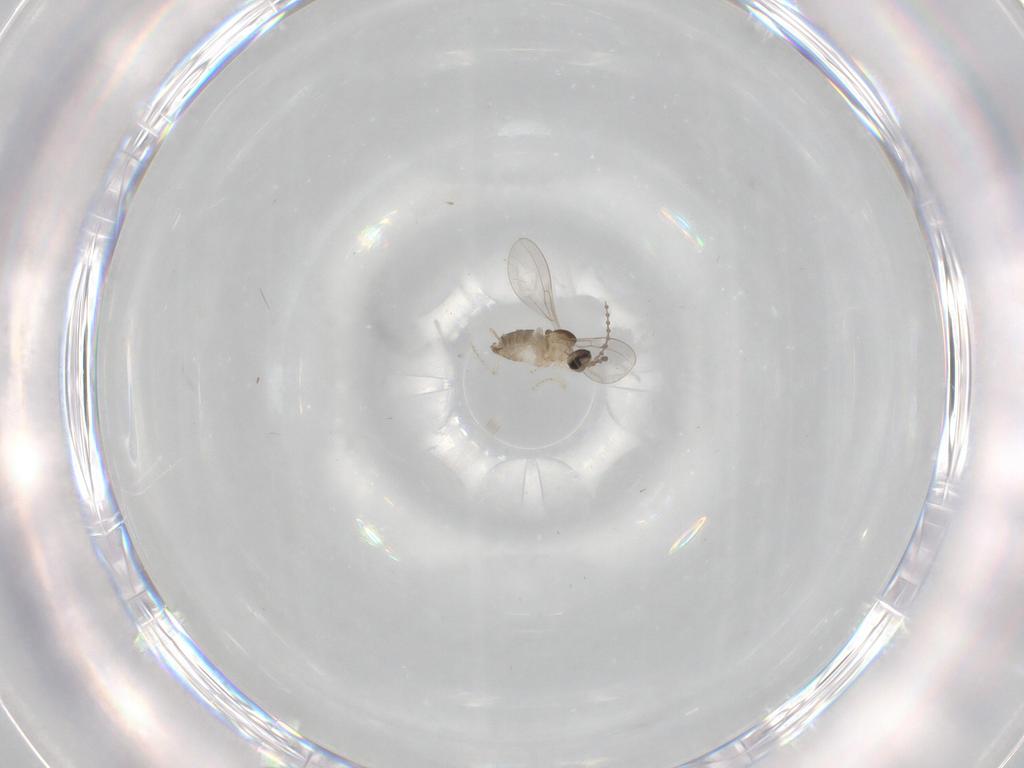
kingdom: Animalia
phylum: Arthropoda
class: Insecta
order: Diptera
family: Cecidomyiidae
